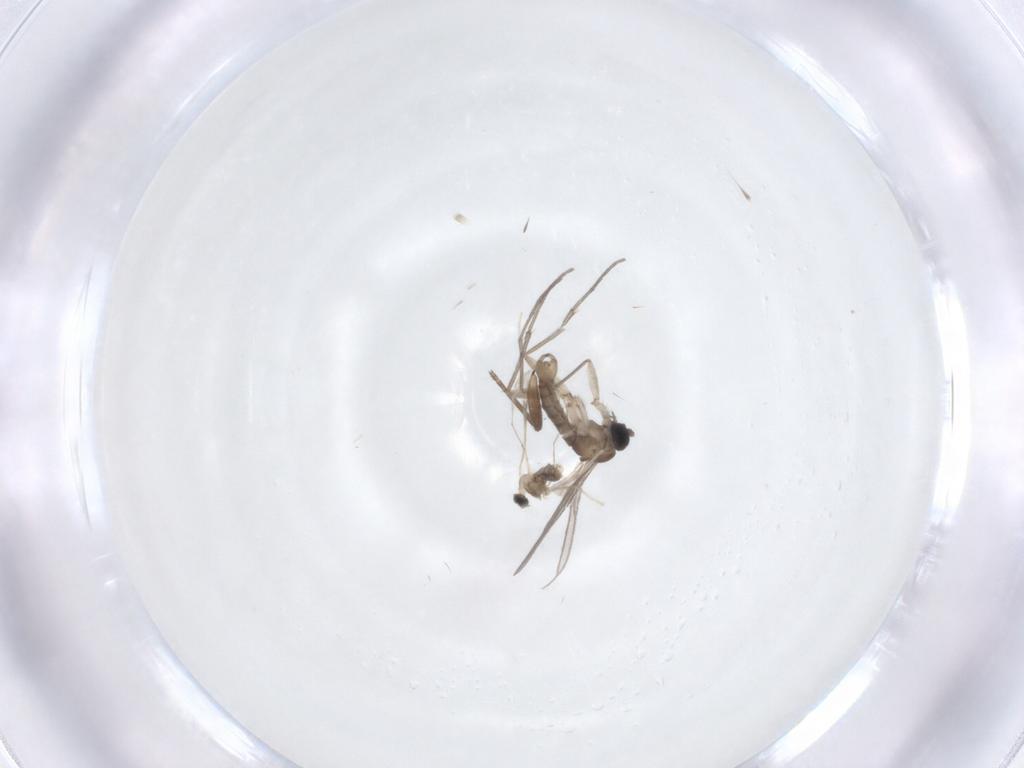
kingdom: Animalia
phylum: Arthropoda
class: Insecta
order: Diptera
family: Sciaridae
